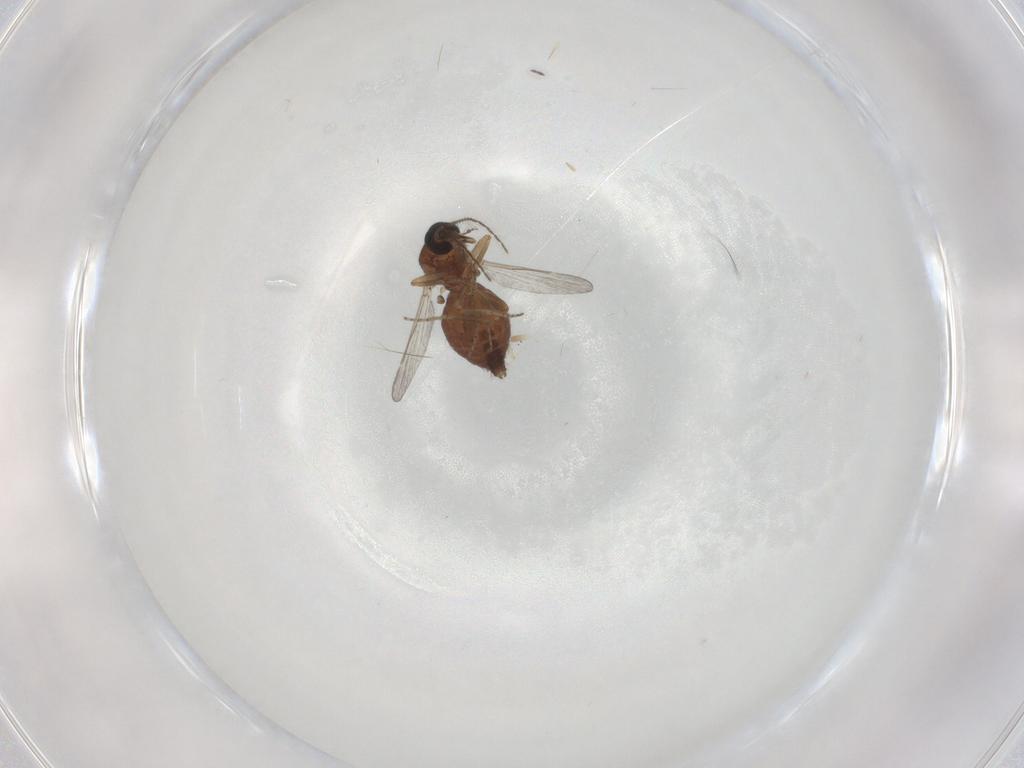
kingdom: Animalia
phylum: Arthropoda
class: Insecta
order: Diptera
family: Ceratopogonidae
